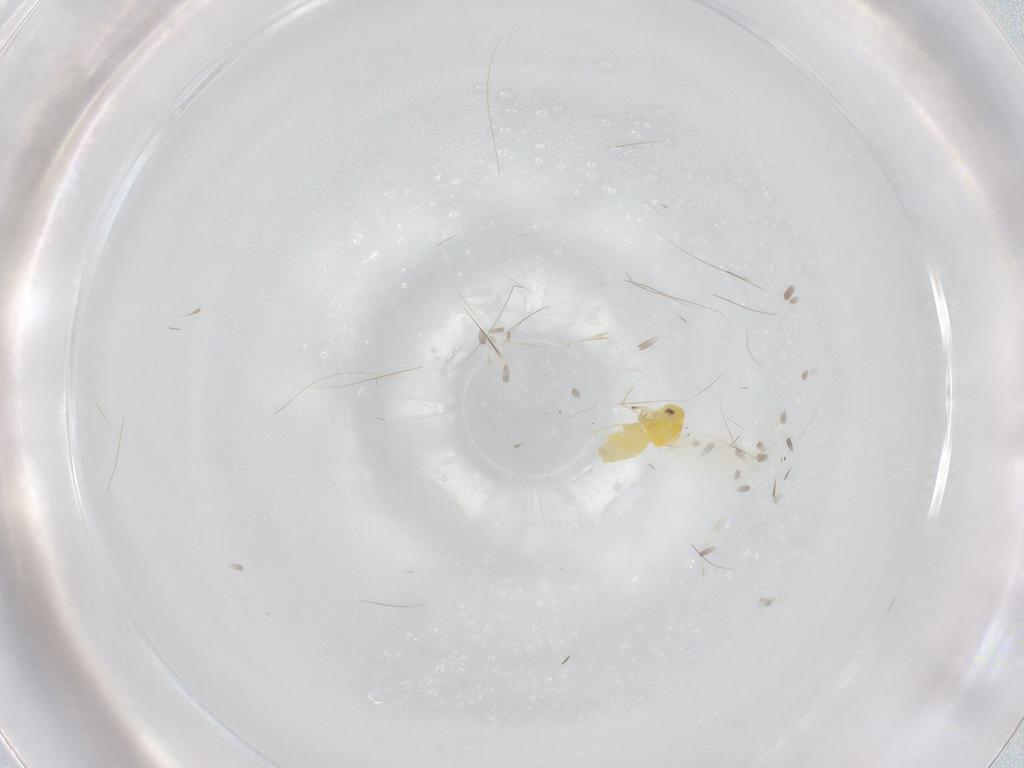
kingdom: Animalia
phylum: Arthropoda
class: Insecta
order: Hemiptera
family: Aleyrodidae
